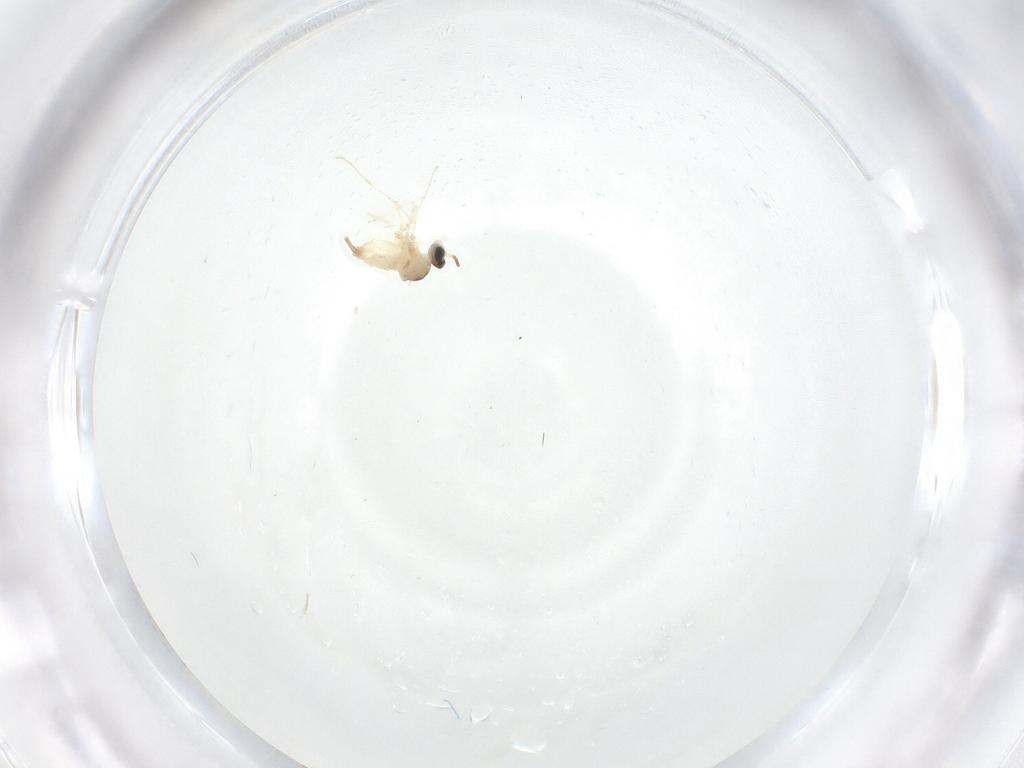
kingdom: Animalia
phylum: Arthropoda
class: Insecta
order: Diptera
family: Cecidomyiidae
